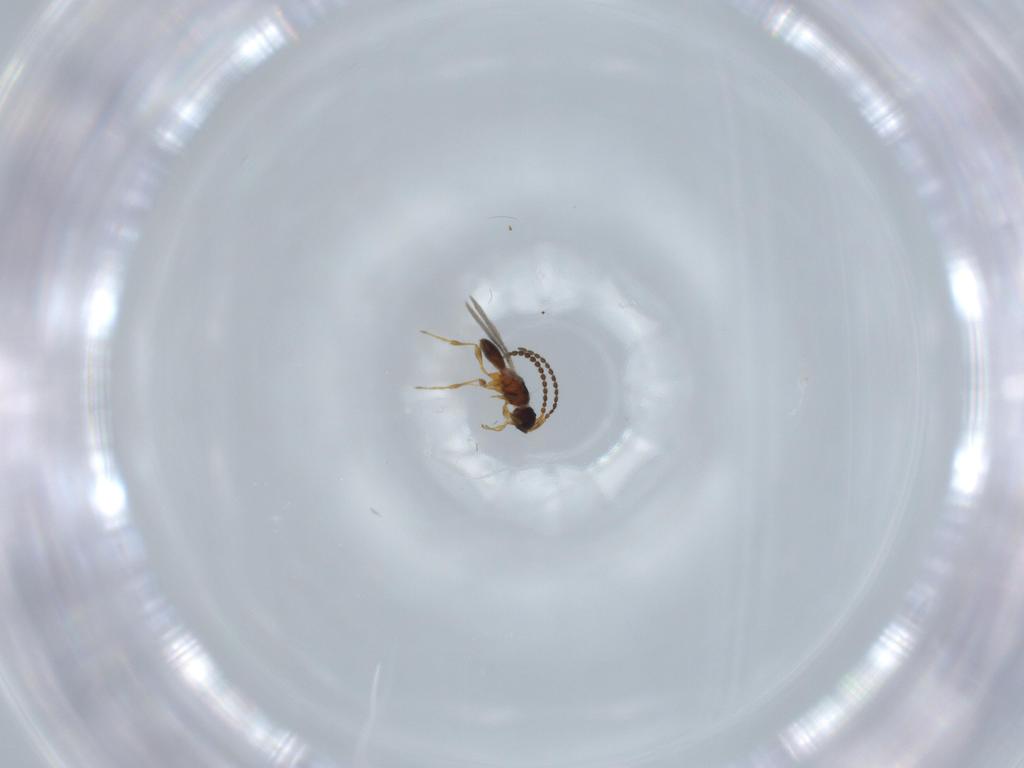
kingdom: Animalia
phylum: Arthropoda
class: Insecta
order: Hymenoptera
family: Diapriidae
